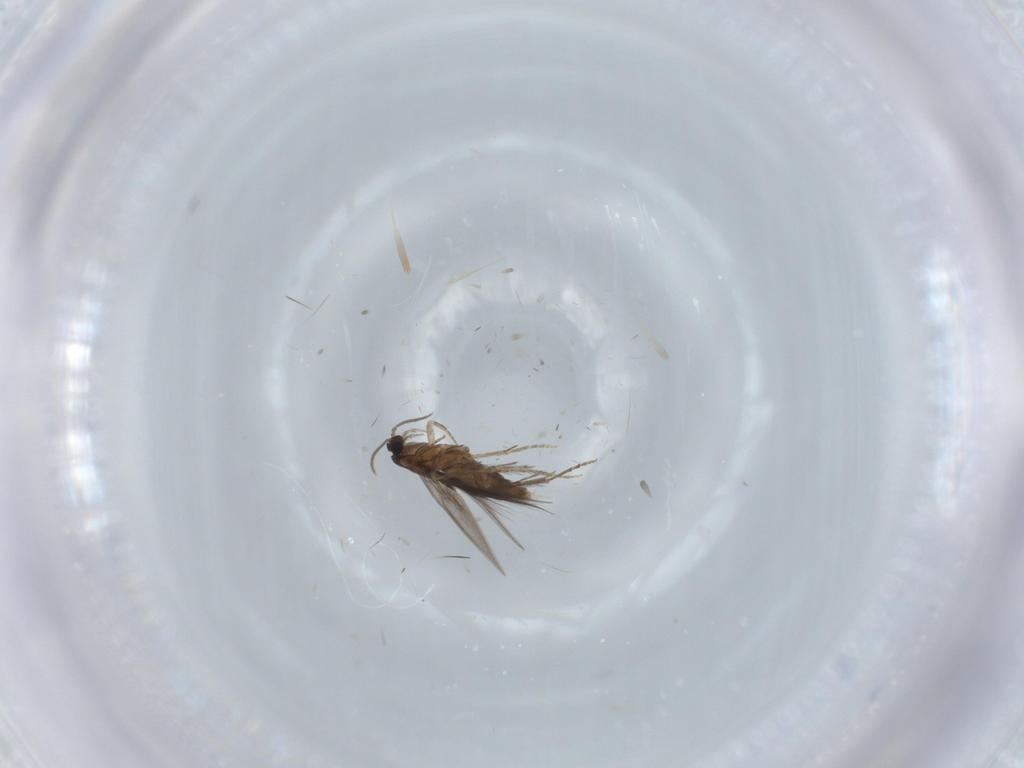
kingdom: Animalia
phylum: Arthropoda
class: Insecta
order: Trichoptera
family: Hydroptilidae
